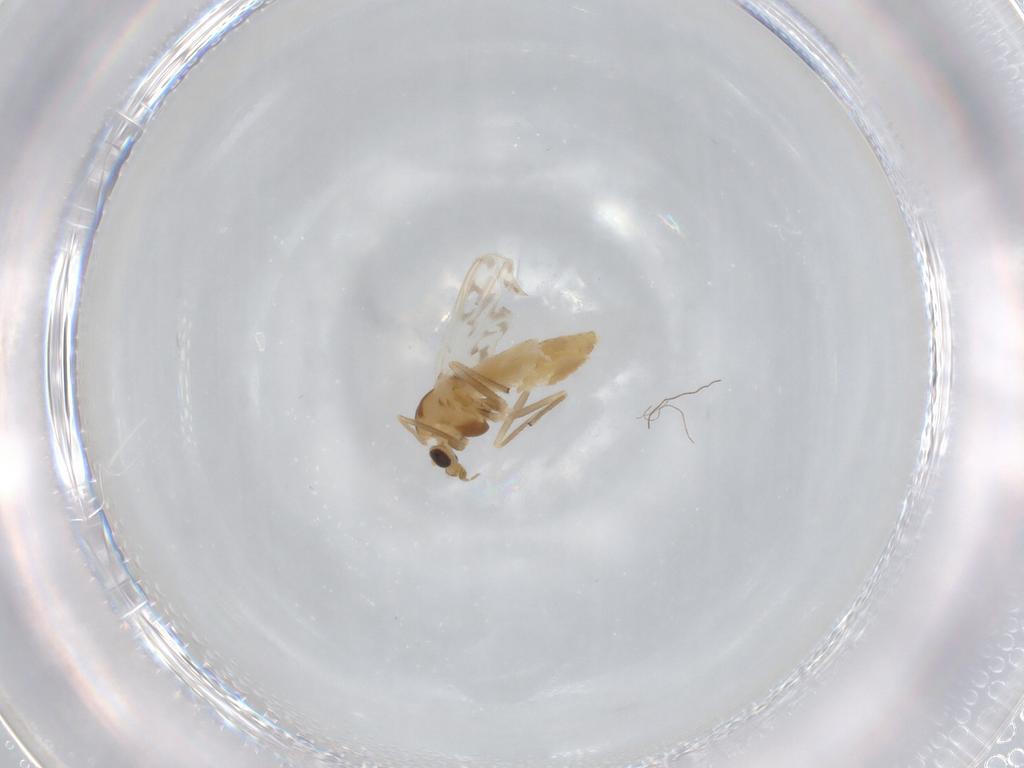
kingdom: Animalia
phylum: Arthropoda
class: Insecta
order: Diptera
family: Chironomidae
